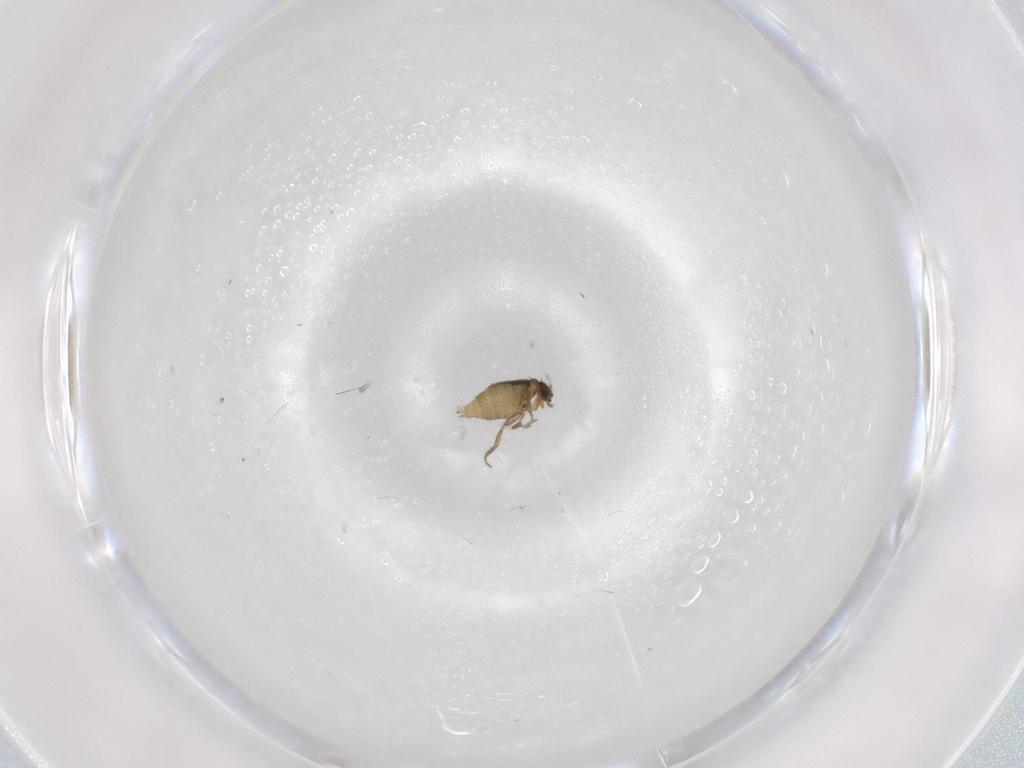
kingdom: Animalia
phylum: Arthropoda
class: Insecta
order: Diptera
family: Phoridae
